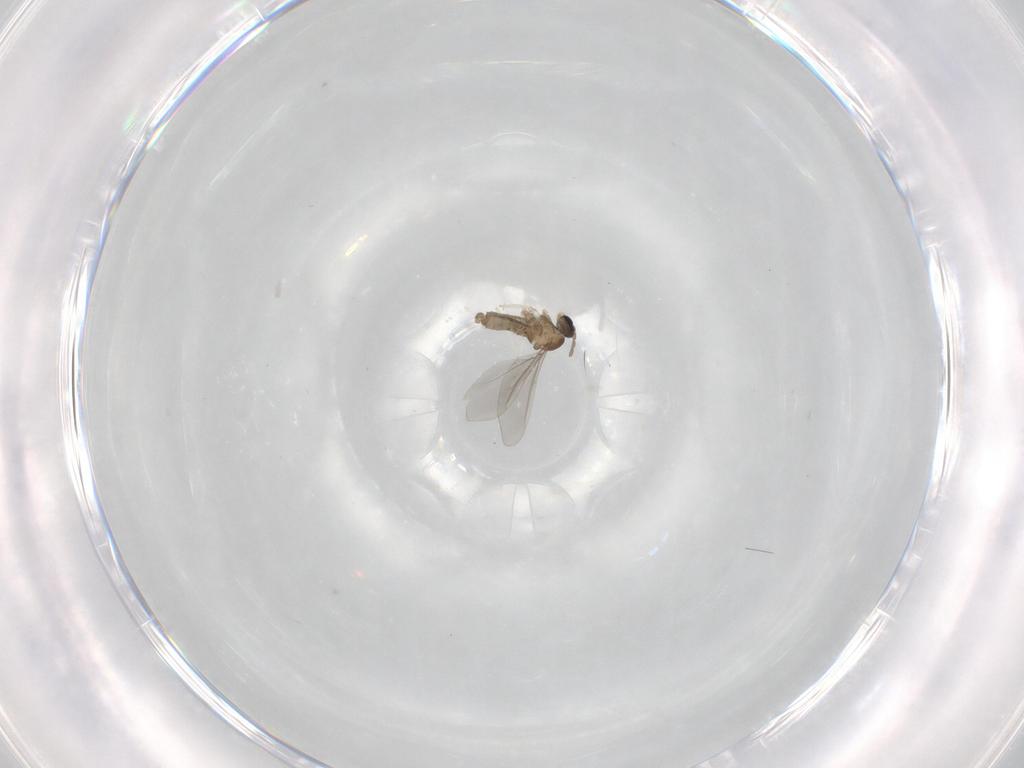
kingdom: Animalia
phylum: Arthropoda
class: Insecta
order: Diptera
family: Cecidomyiidae
